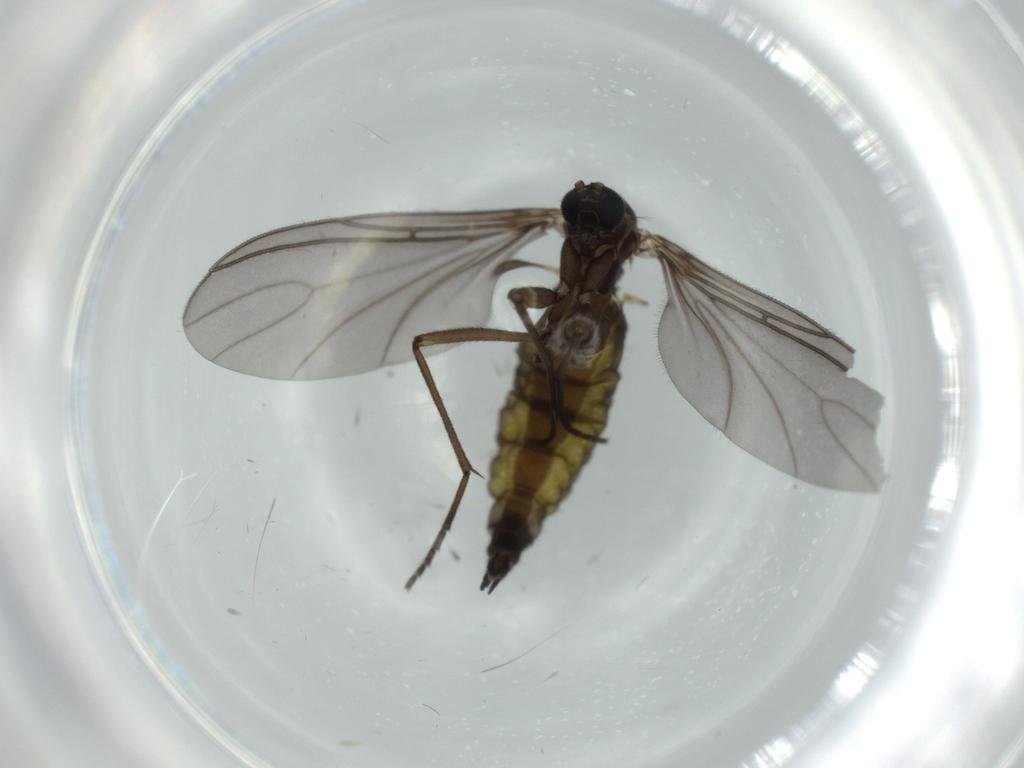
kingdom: Animalia
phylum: Arthropoda
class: Insecta
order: Diptera
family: Sciaridae
